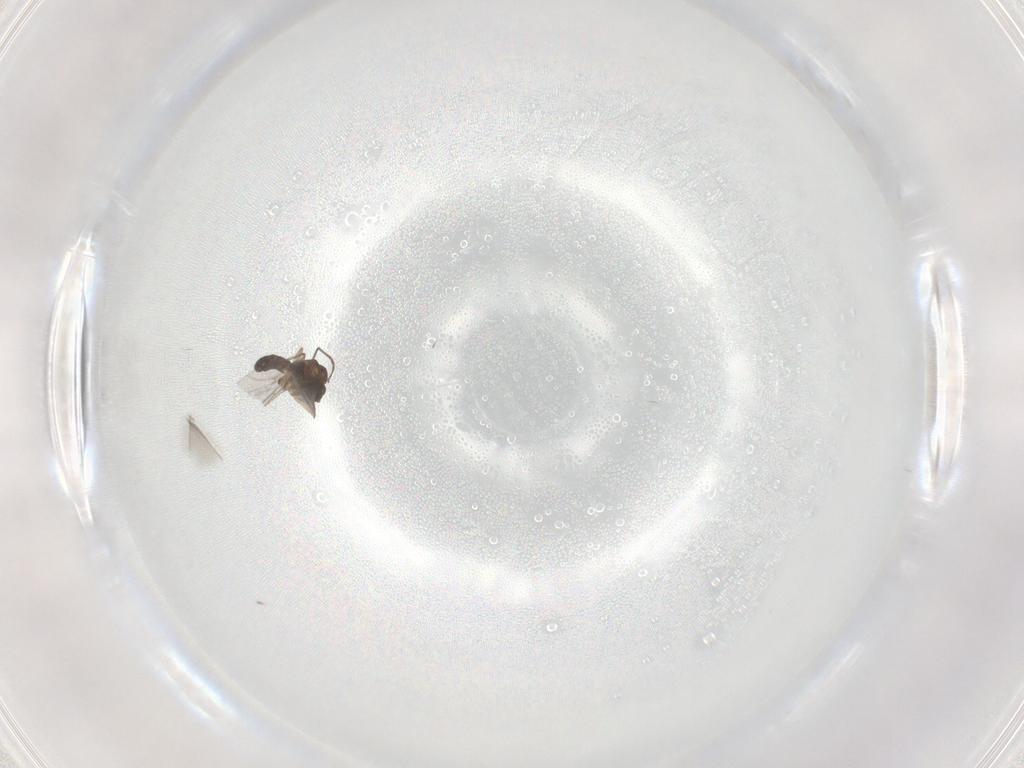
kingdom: Animalia
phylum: Arthropoda
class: Insecta
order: Diptera
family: Sciaridae
